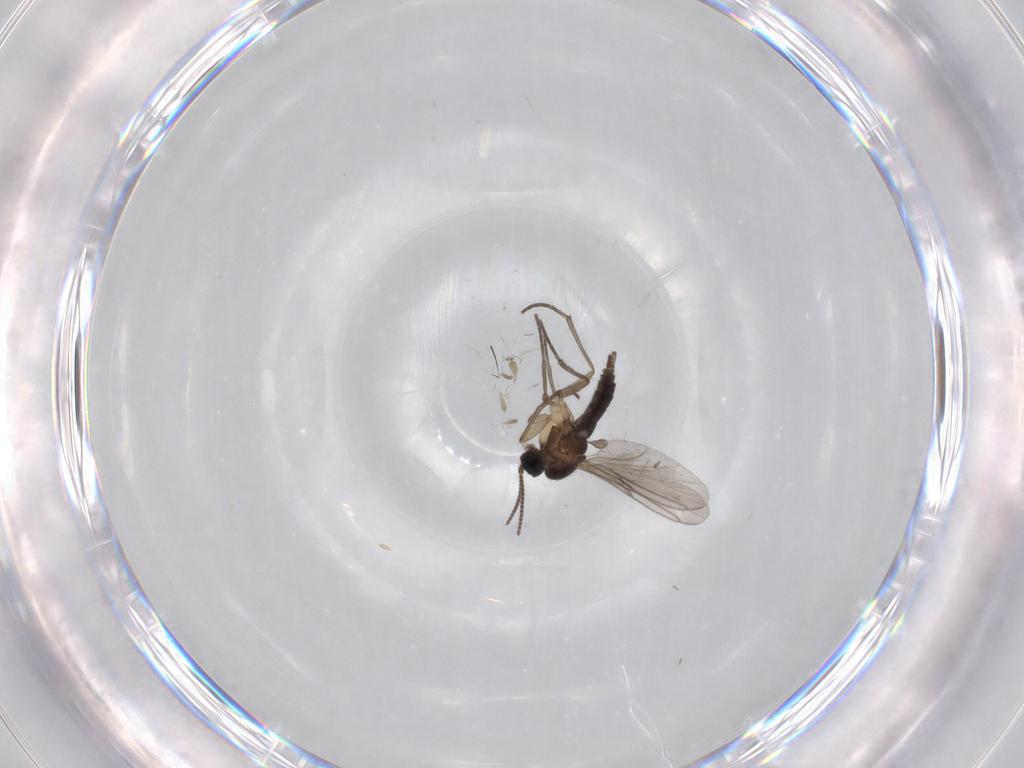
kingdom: Animalia
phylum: Arthropoda
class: Insecta
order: Diptera
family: Sciaridae
